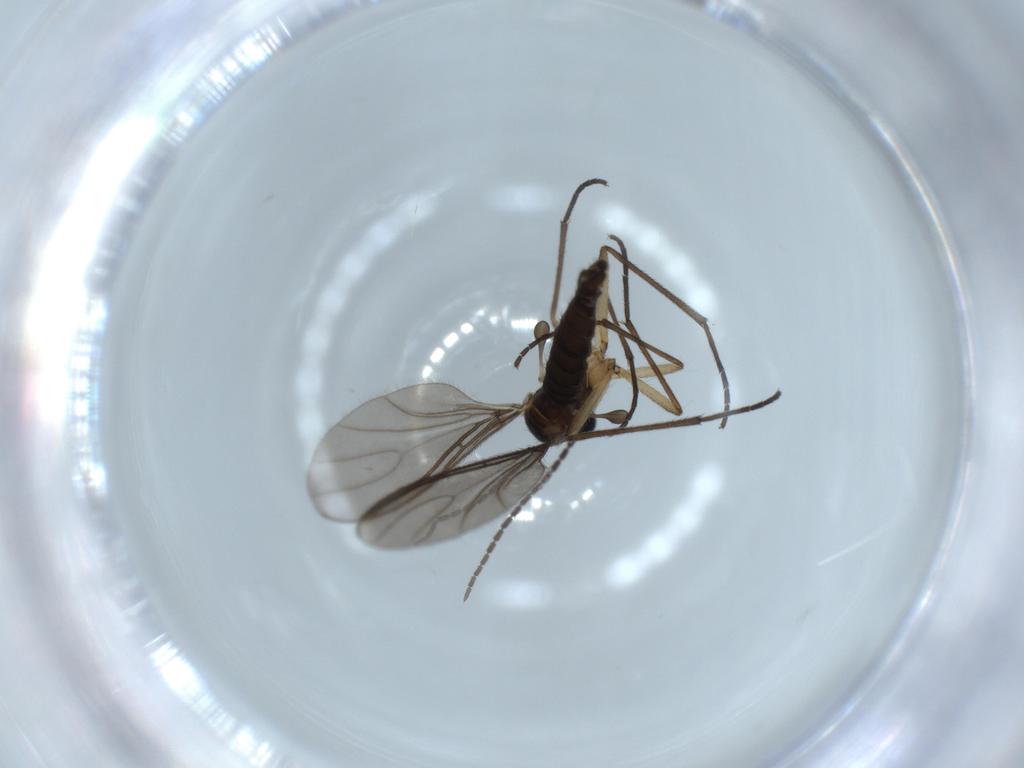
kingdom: Animalia
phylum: Arthropoda
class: Insecta
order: Diptera
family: Sciaridae
